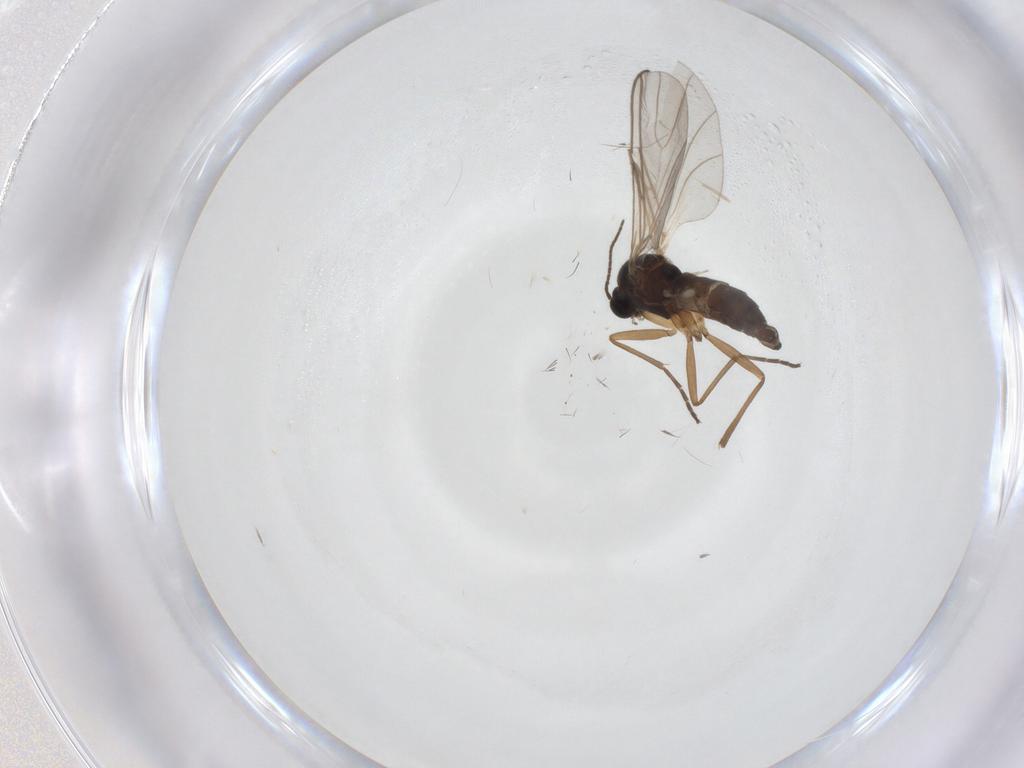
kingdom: Animalia
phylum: Arthropoda
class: Insecta
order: Diptera
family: Sciaridae
